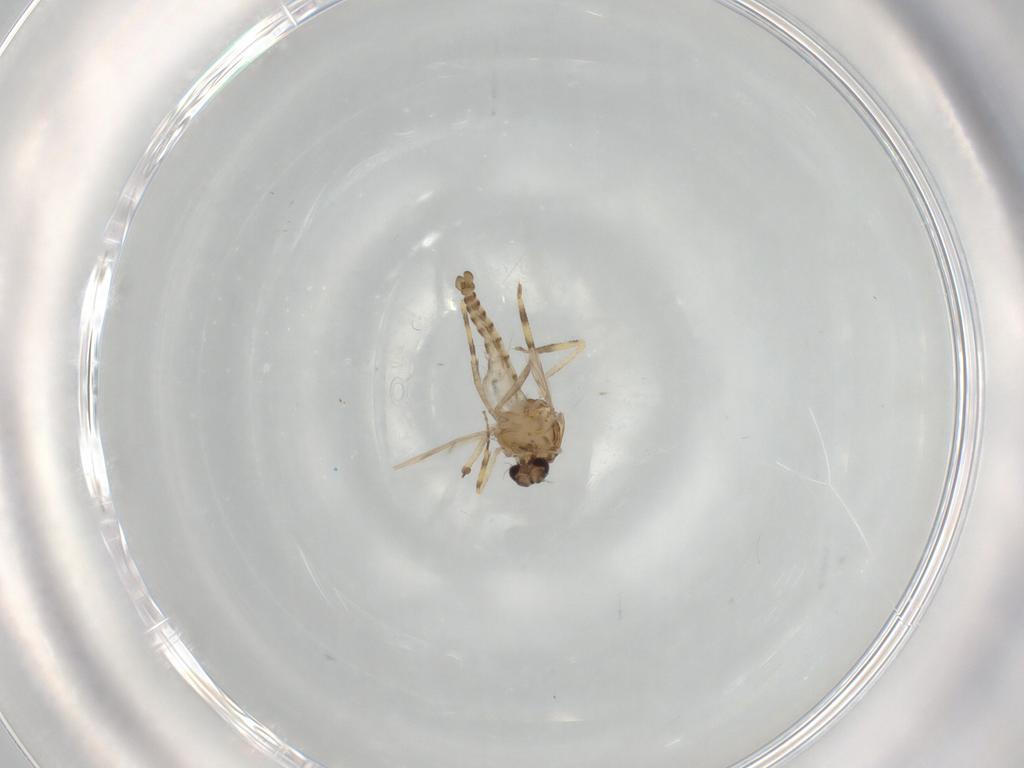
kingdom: Animalia
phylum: Arthropoda
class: Insecta
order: Diptera
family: Ceratopogonidae
